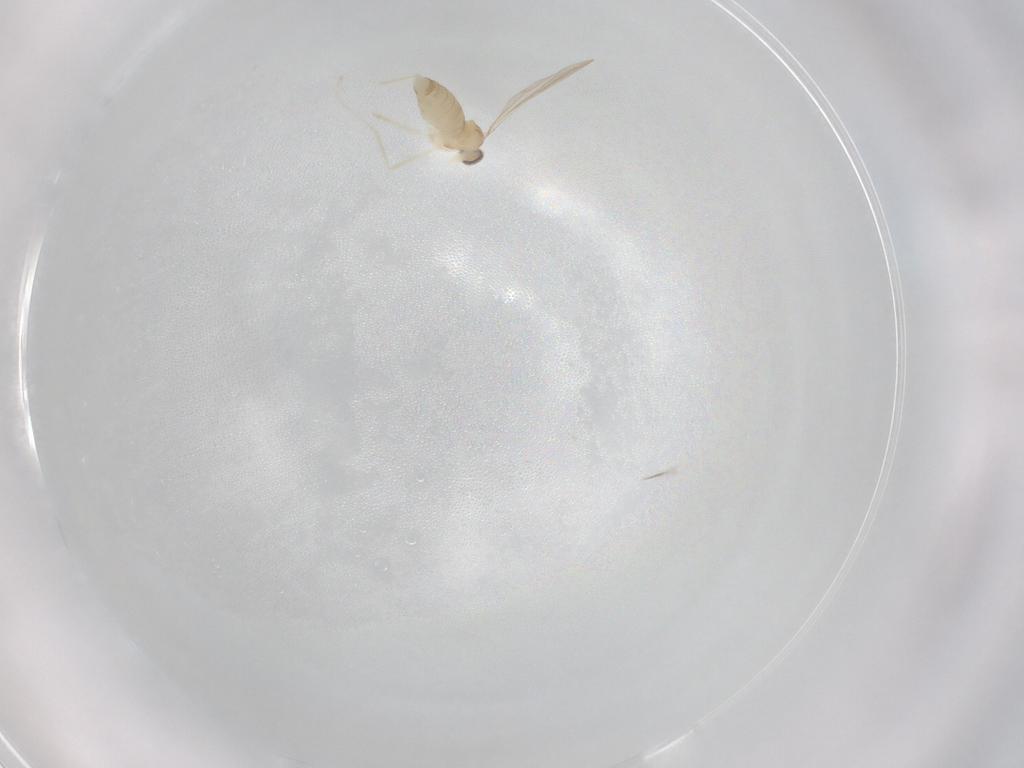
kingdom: Animalia
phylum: Arthropoda
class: Insecta
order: Diptera
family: Cecidomyiidae
